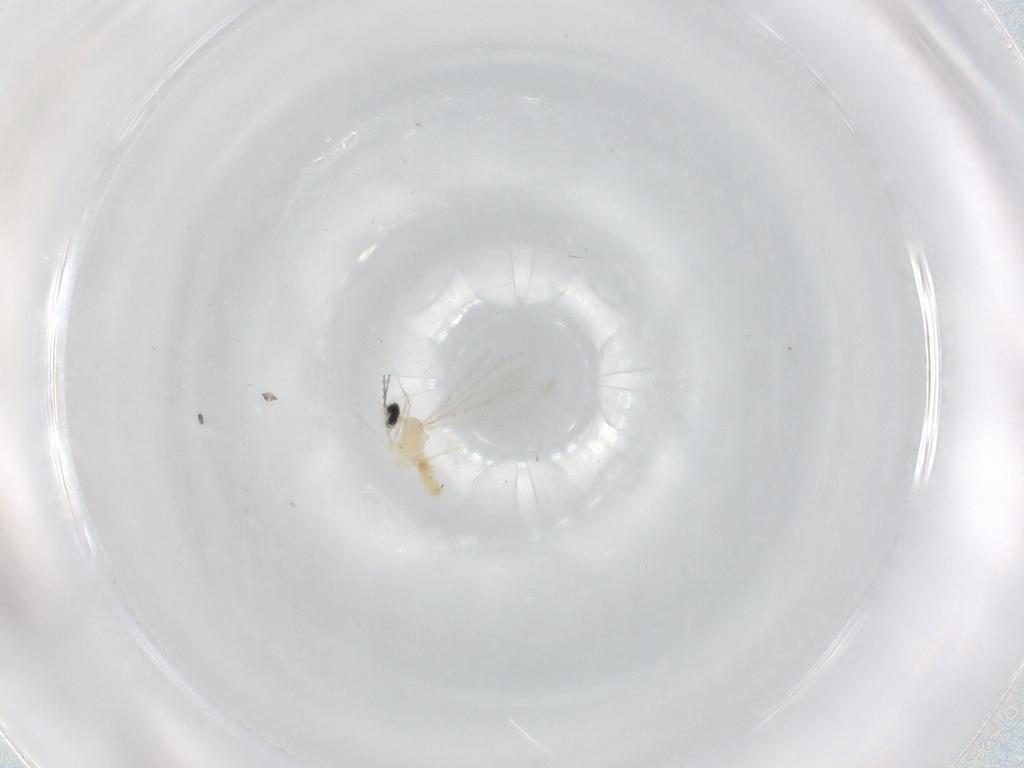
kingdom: Animalia
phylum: Arthropoda
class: Insecta
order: Diptera
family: Cecidomyiidae
